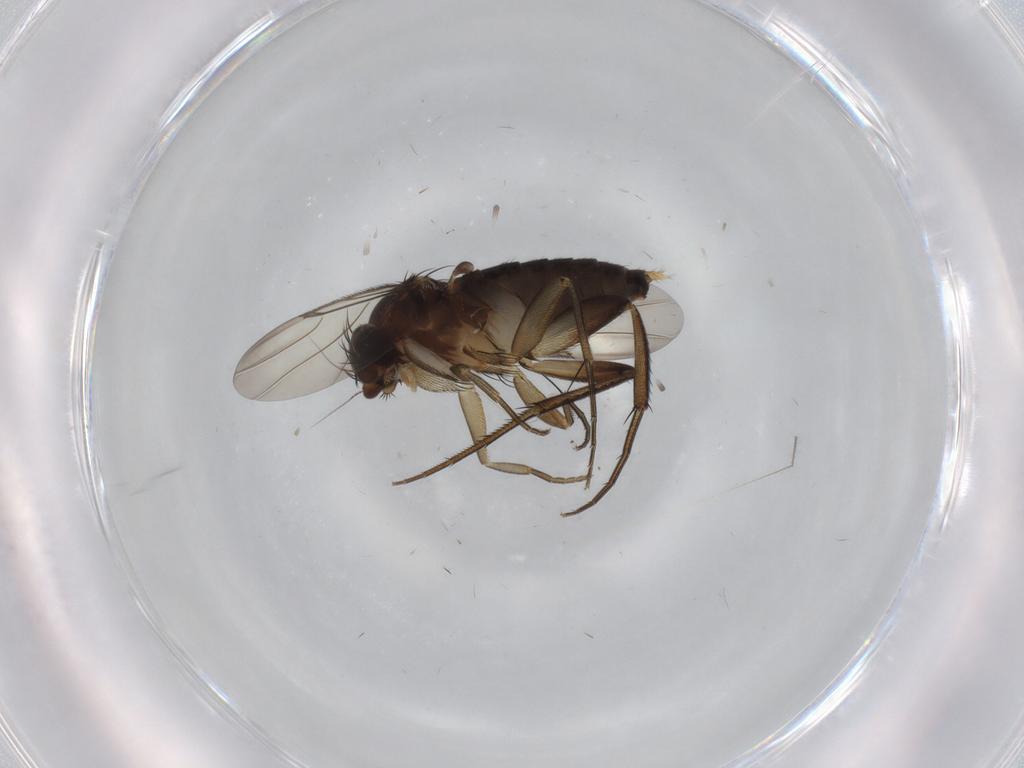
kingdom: Animalia
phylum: Arthropoda
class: Insecta
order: Diptera
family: Phoridae
